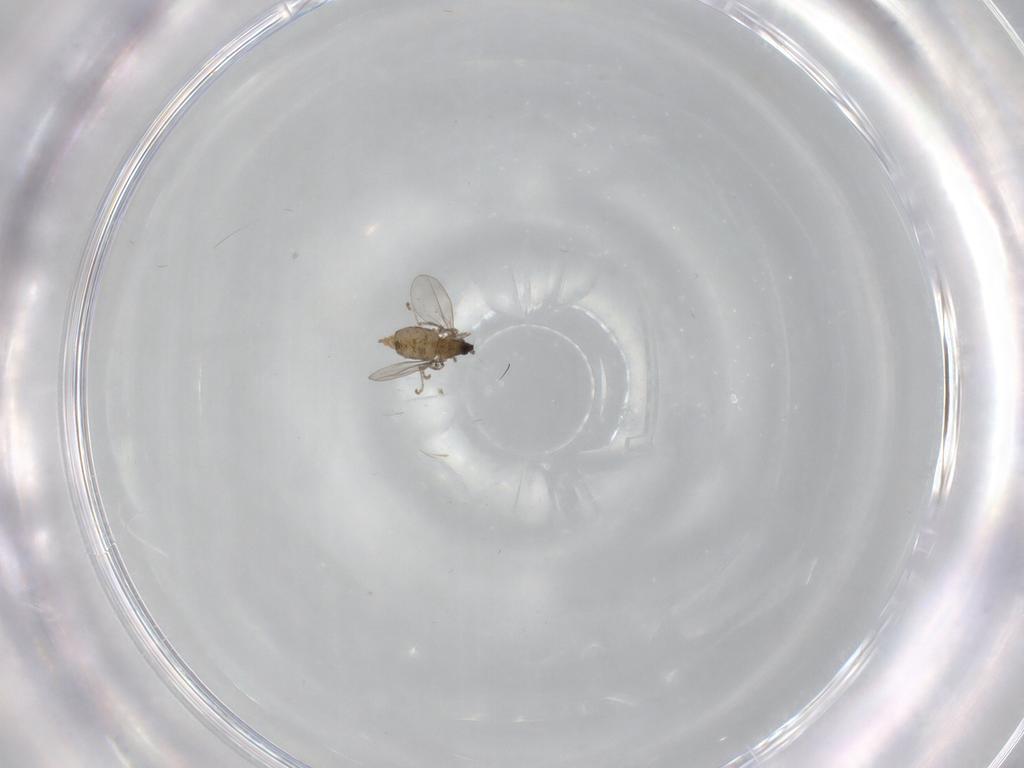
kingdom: Animalia
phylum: Arthropoda
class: Insecta
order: Diptera
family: Cecidomyiidae
